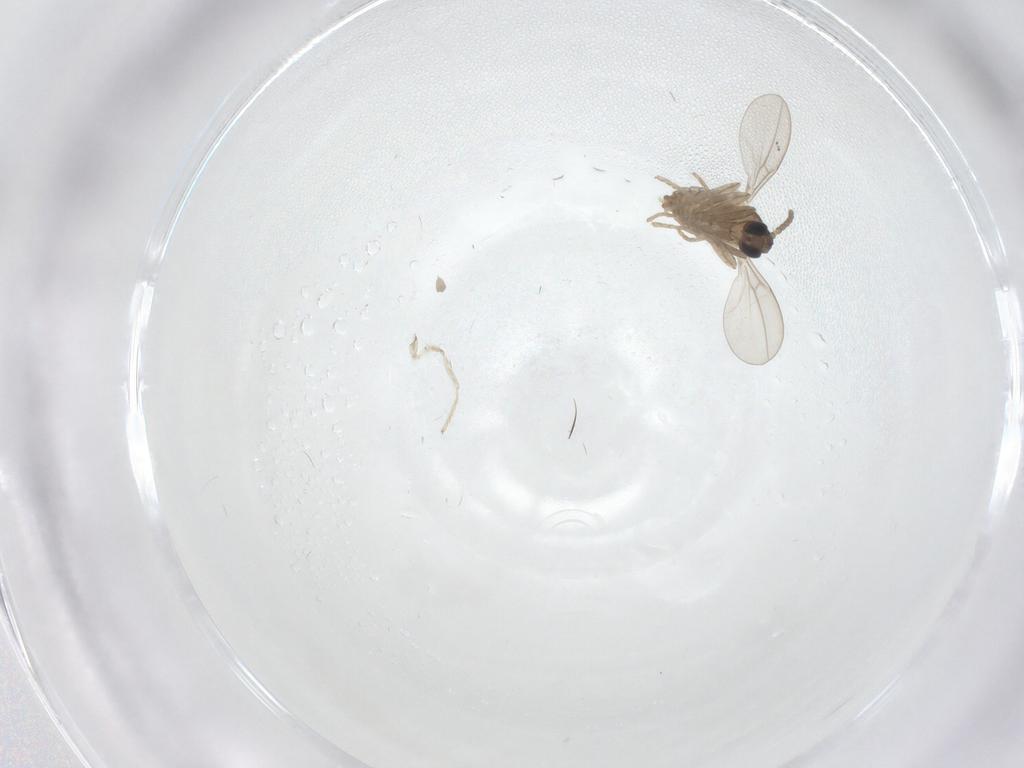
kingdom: Animalia
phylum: Arthropoda
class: Insecta
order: Diptera
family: Cecidomyiidae
